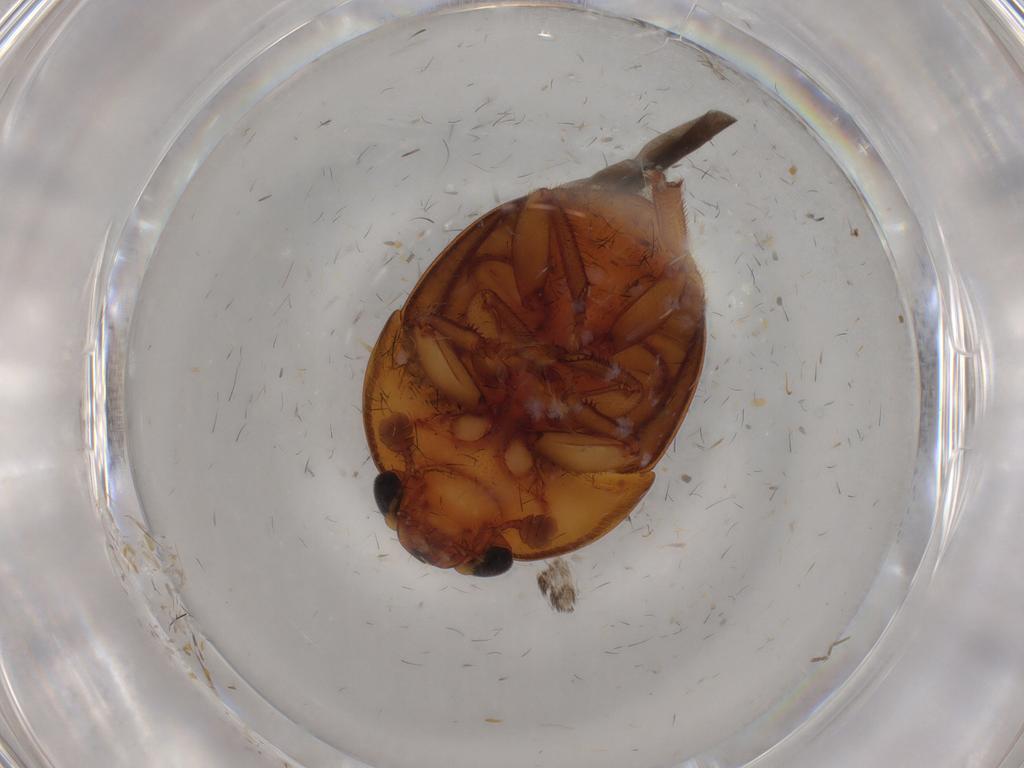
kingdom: Animalia
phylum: Arthropoda
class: Insecta
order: Coleoptera
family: Nitidulidae
